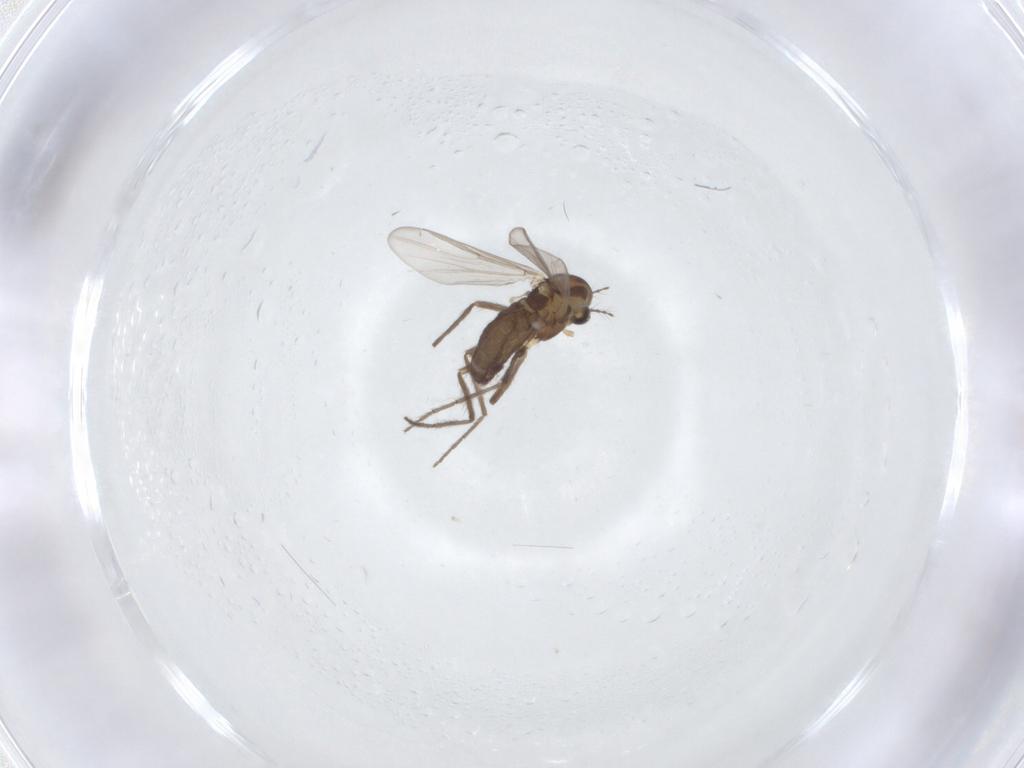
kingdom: Animalia
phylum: Arthropoda
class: Insecta
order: Diptera
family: Chironomidae
